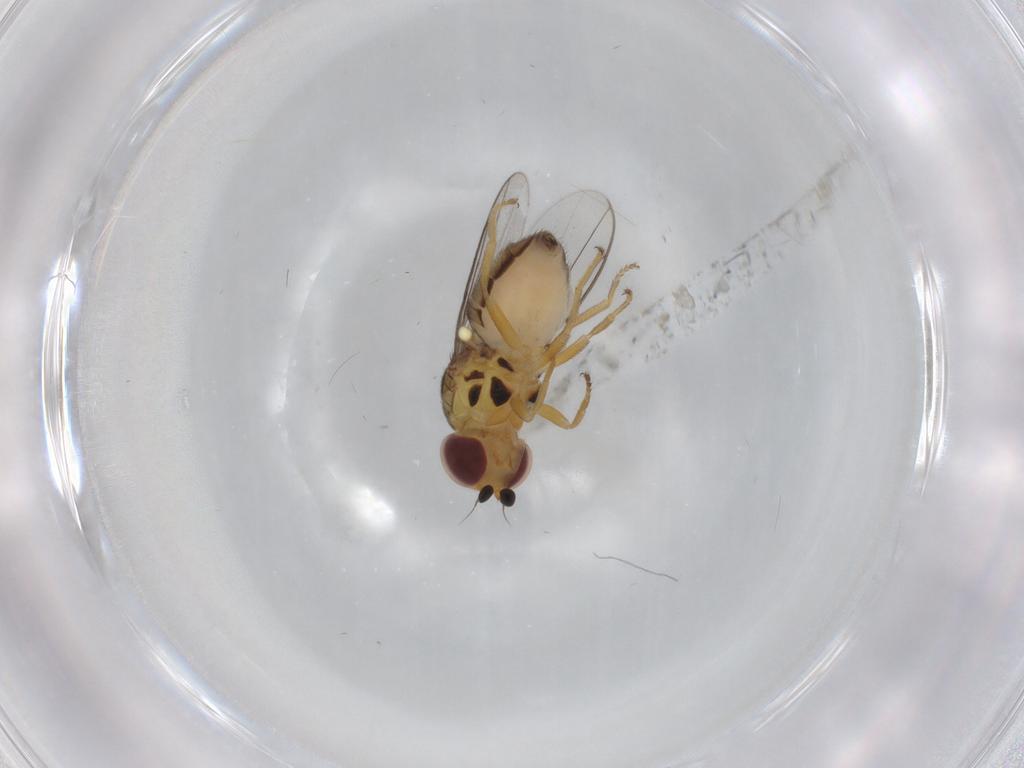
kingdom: Animalia
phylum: Arthropoda
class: Insecta
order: Diptera
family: Chloropidae
